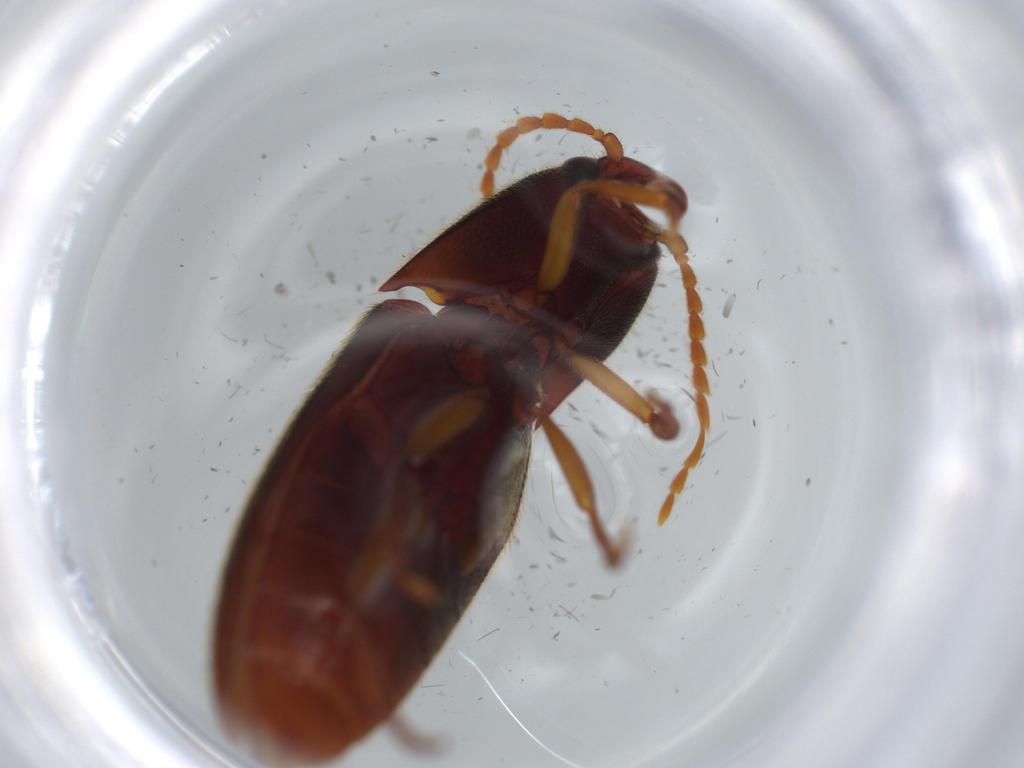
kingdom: Animalia
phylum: Arthropoda
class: Insecta
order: Coleoptera
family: Elateridae
